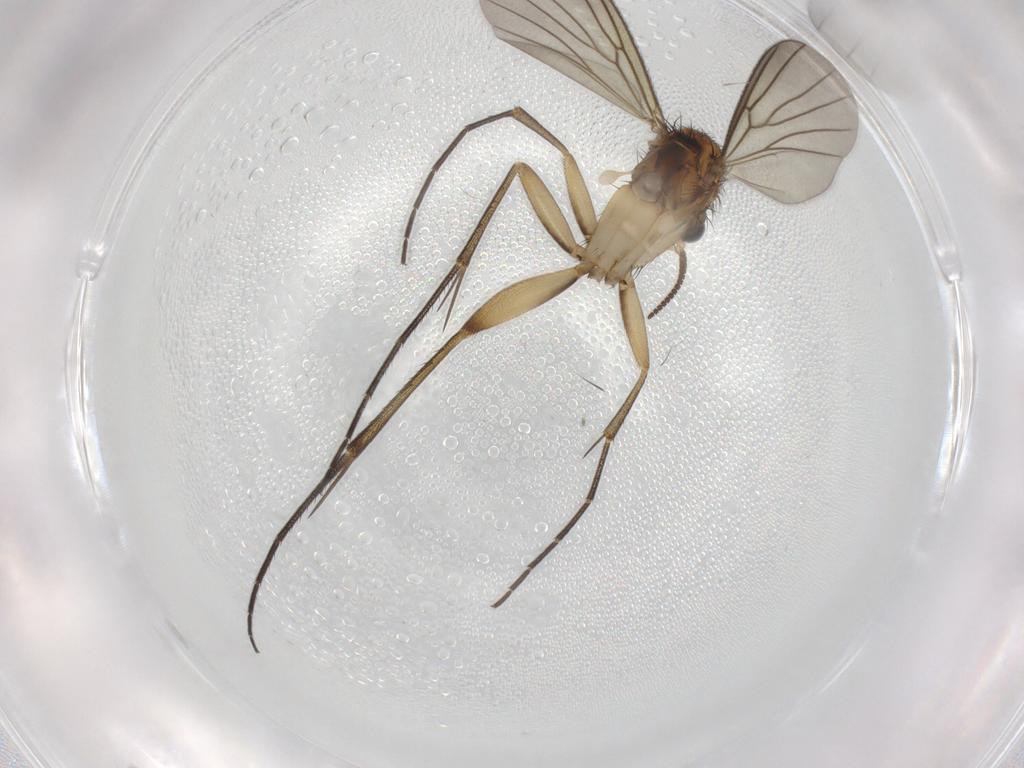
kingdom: Animalia
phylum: Arthropoda
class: Insecta
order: Diptera
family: Mycetophilidae
